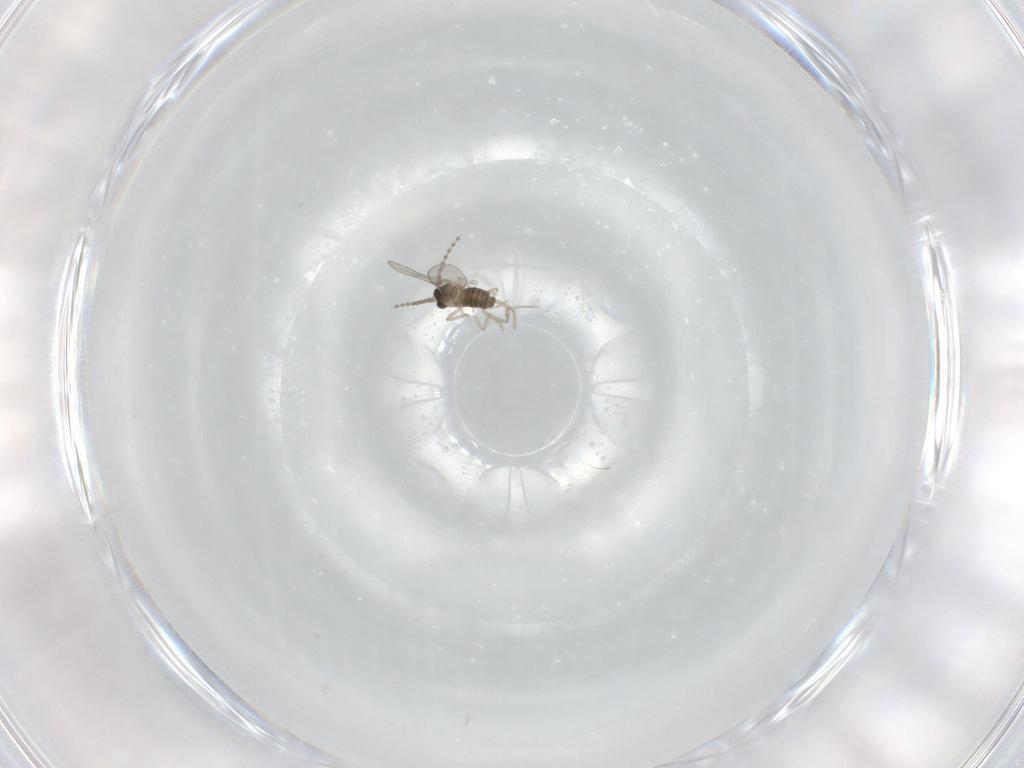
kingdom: Animalia
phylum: Arthropoda
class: Insecta
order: Diptera
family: Ceratopogonidae
